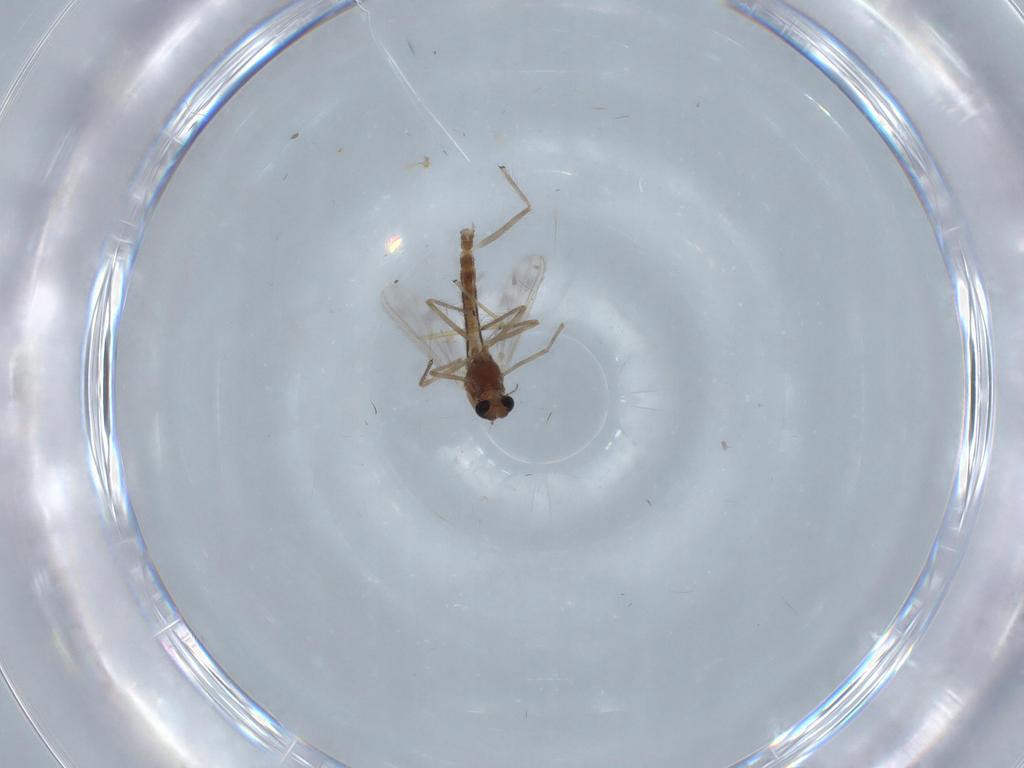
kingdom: Animalia
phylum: Arthropoda
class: Insecta
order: Diptera
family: Chironomidae
